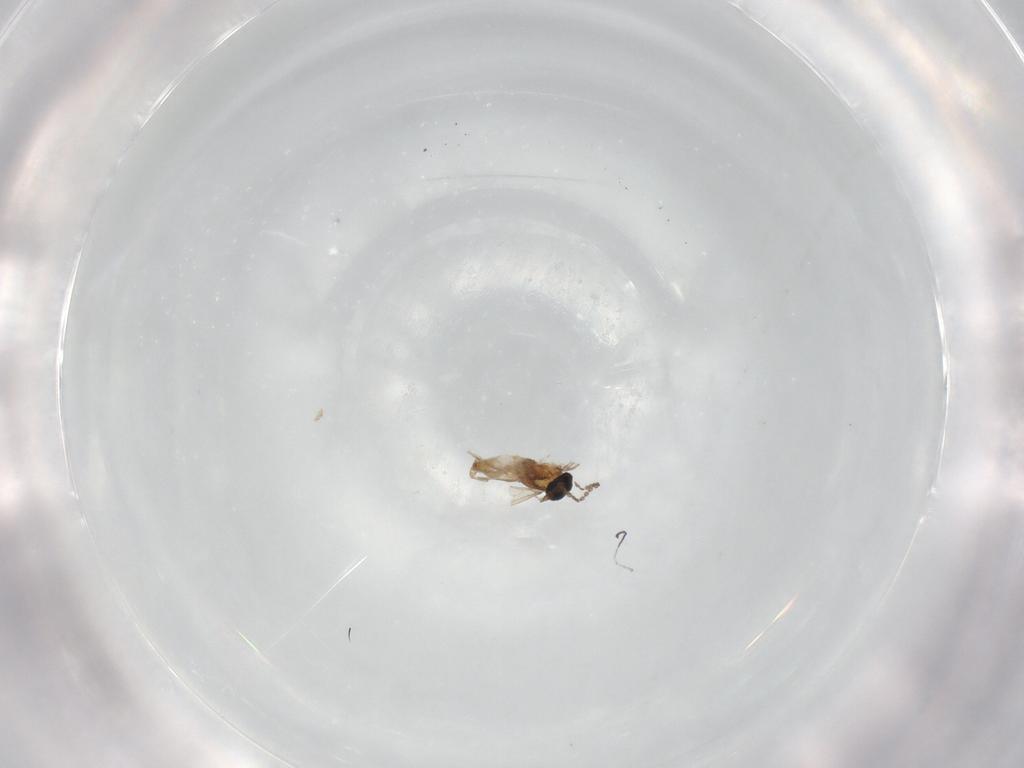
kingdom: Animalia
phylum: Arthropoda
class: Insecta
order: Diptera
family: Cecidomyiidae
